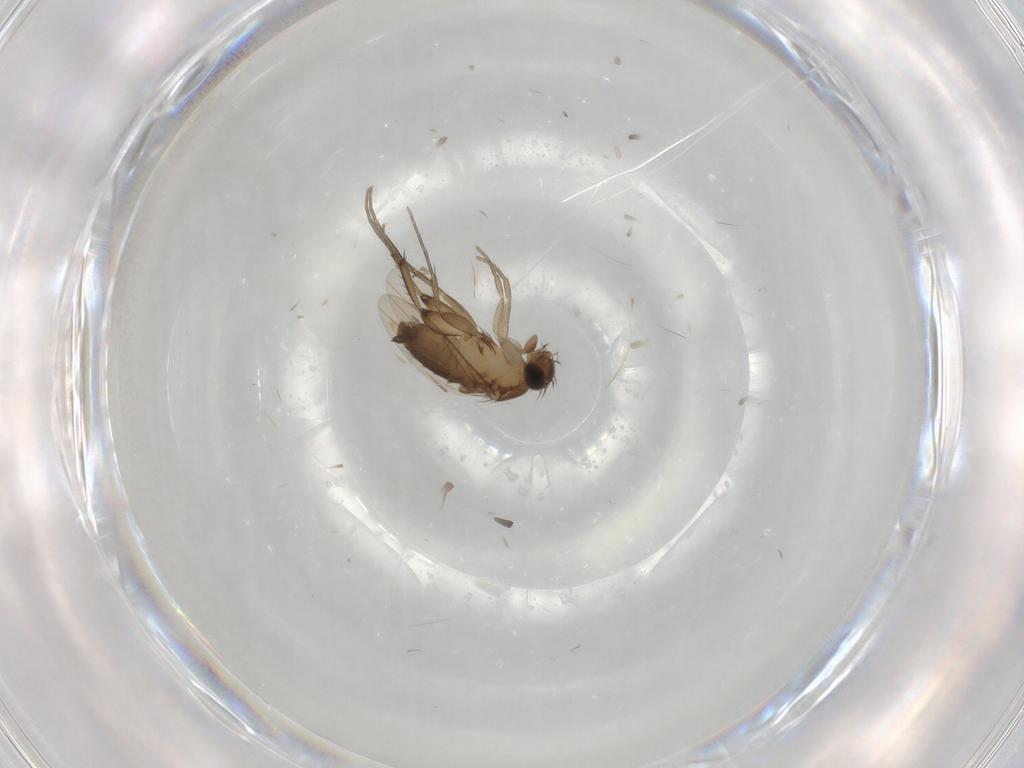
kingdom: Animalia
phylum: Arthropoda
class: Insecta
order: Diptera
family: Phoridae
